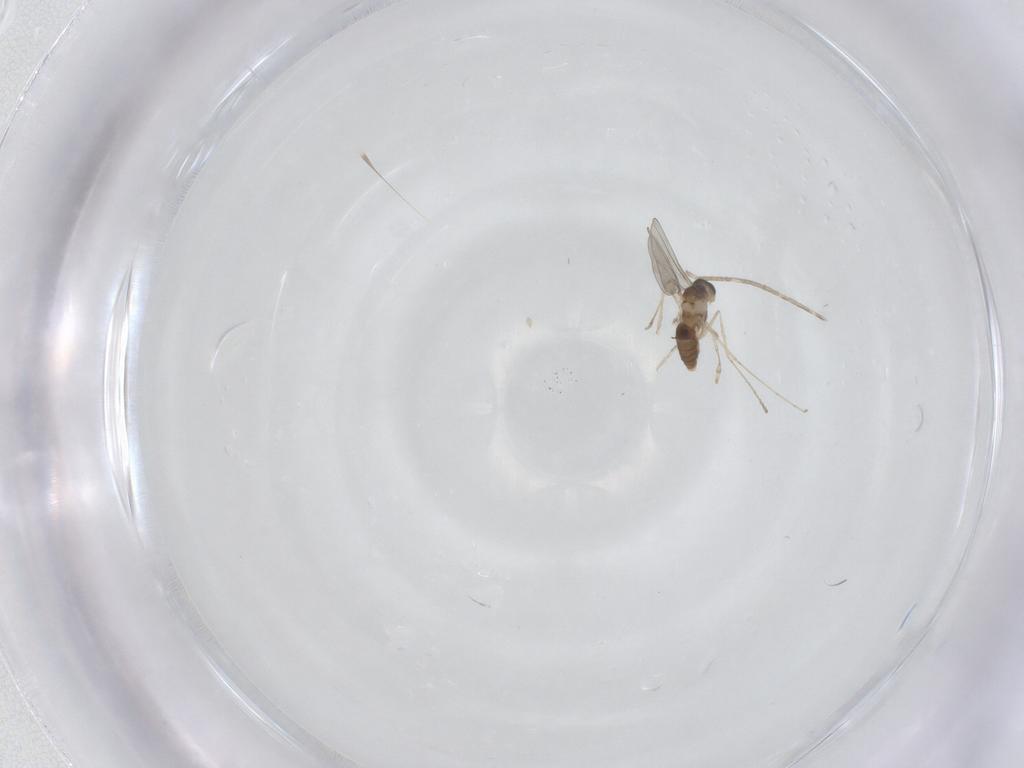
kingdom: Animalia
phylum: Arthropoda
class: Insecta
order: Diptera
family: Cecidomyiidae
